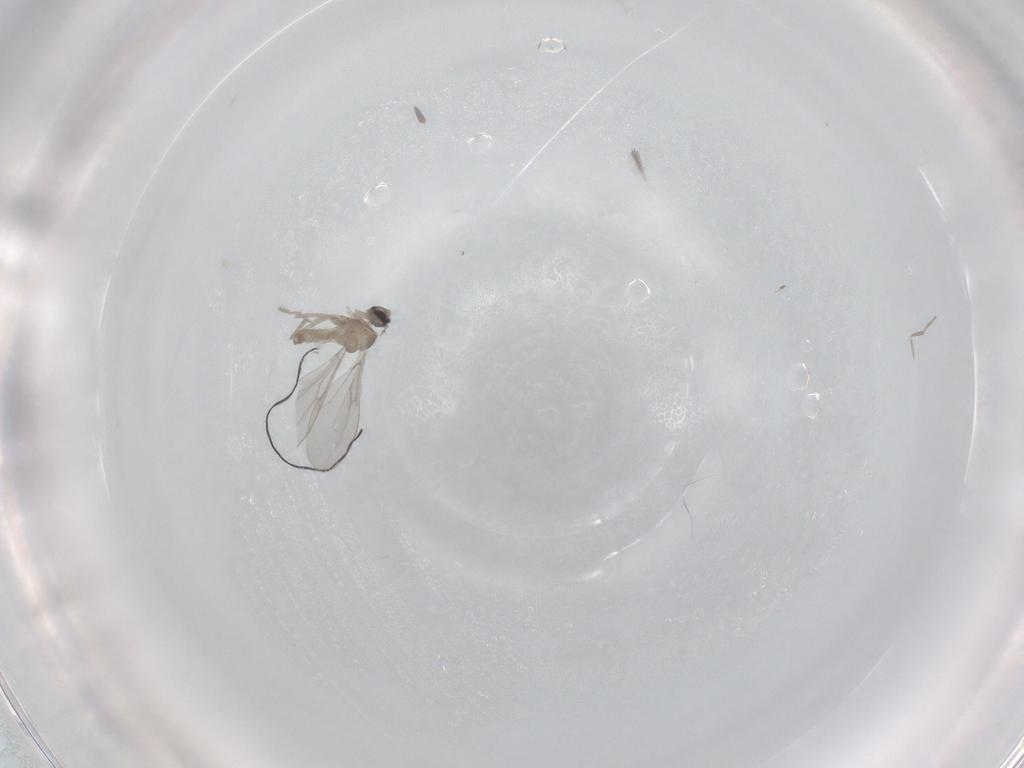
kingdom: Animalia
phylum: Arthropoda
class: Insecta
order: Diptera
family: Cecidomyiidae
